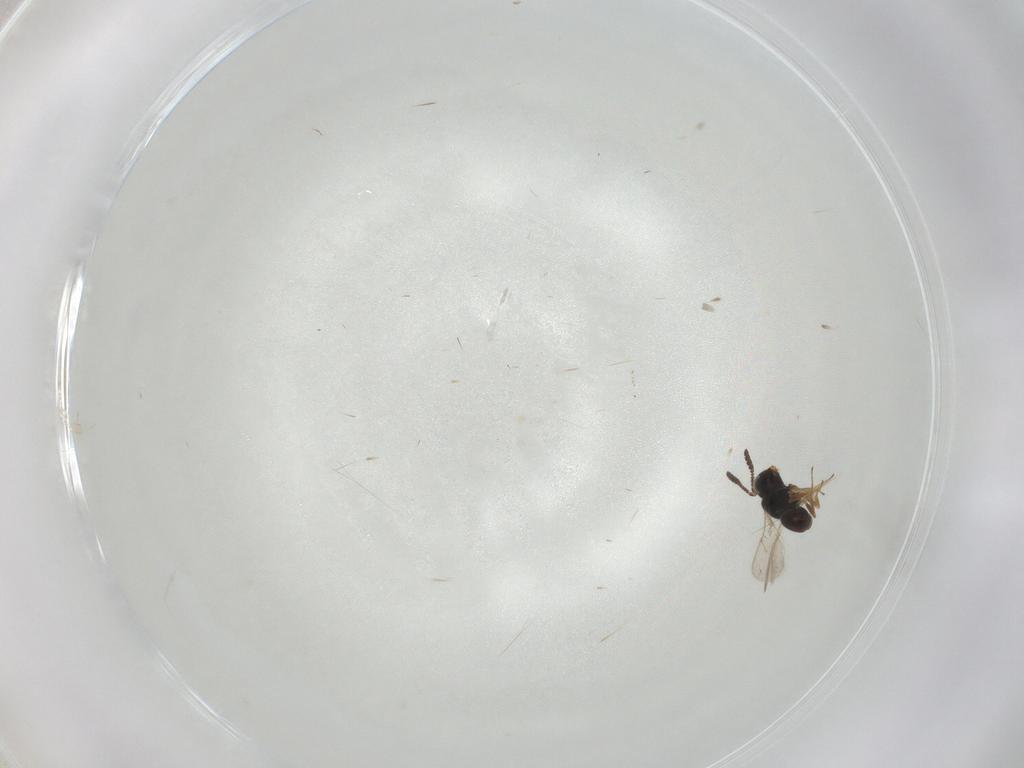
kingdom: Animalia
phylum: Arthropoda
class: Insecta
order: Hymenoptera
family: Scelionidae
